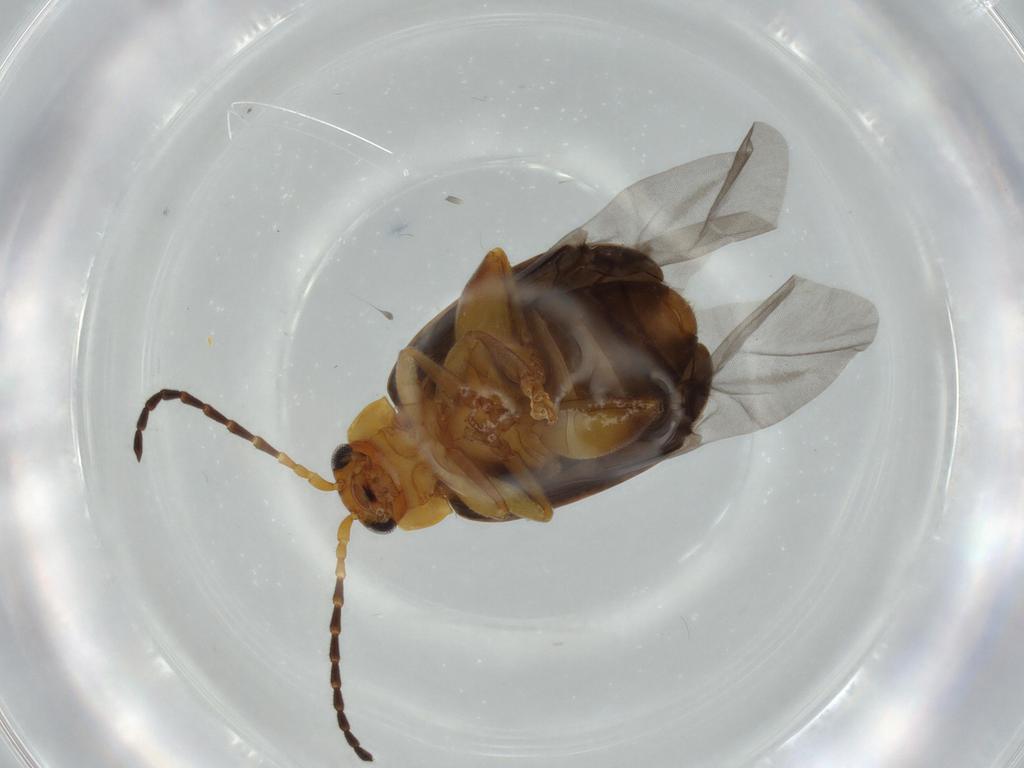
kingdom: Animalia
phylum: Arthropoda
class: Insecta
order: Coleoptera
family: Chrysomelidae
